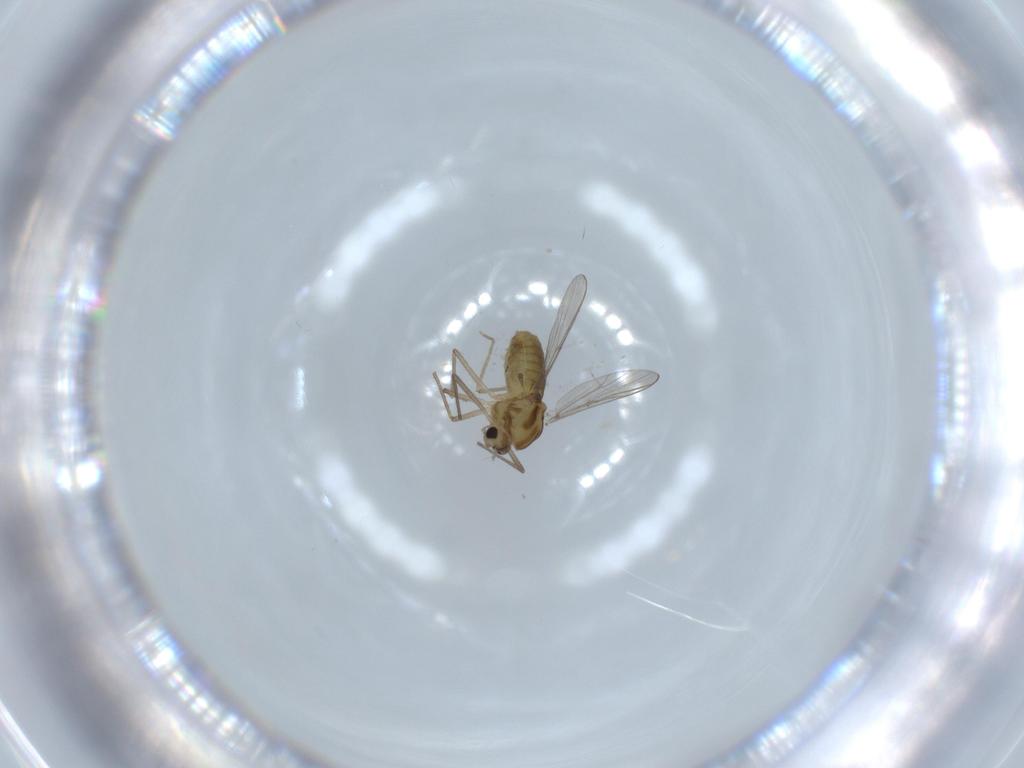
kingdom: Animalia
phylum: Arthropoda
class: Insecta
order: Diptera
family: Chironomidae
